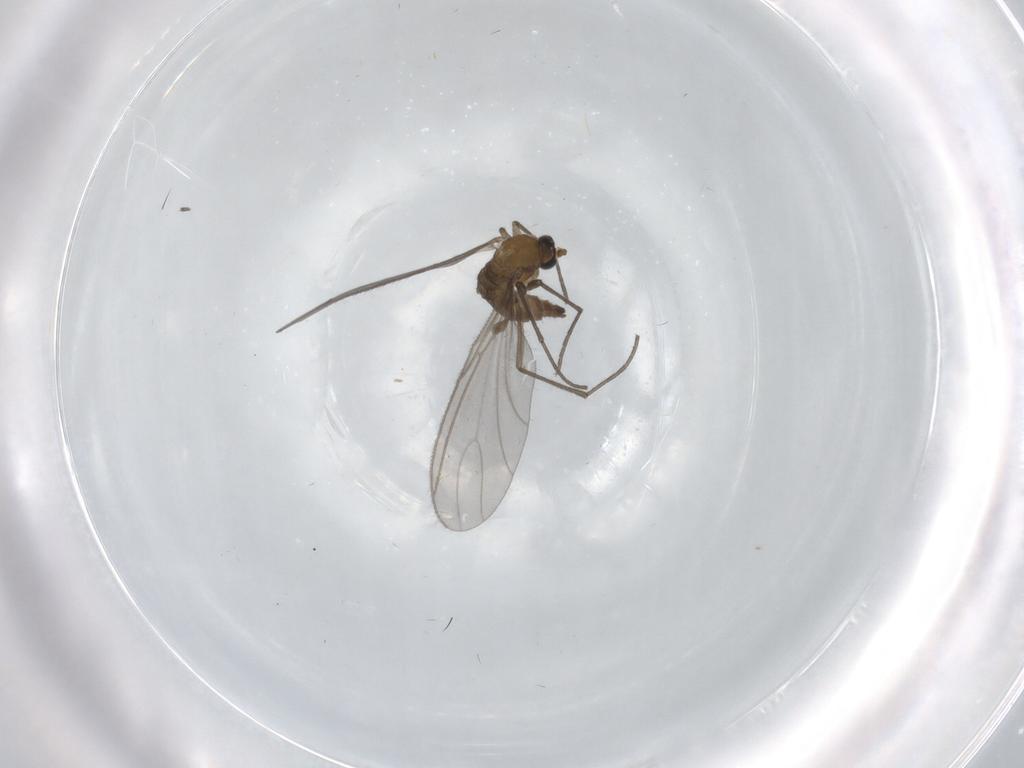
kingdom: Animalia
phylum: Arthropoda
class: Insecta
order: Diptera
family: Sciaridae
